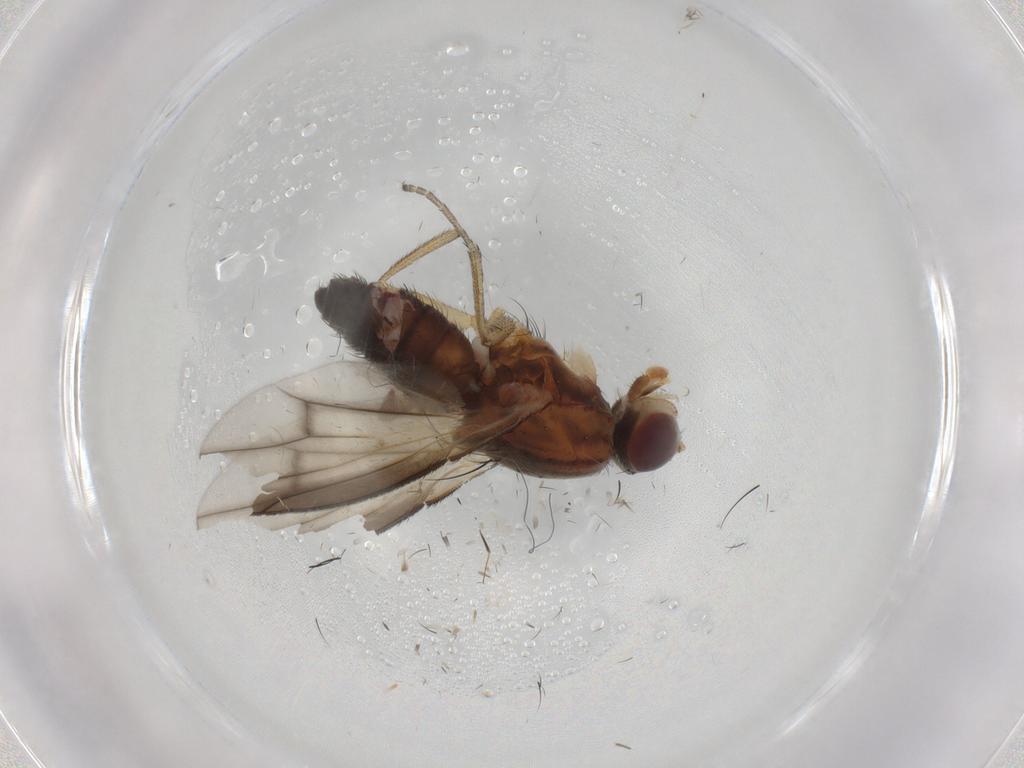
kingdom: Animalia
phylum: Arthropoda
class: Insecta
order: Diptera
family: Heleomyzidae
